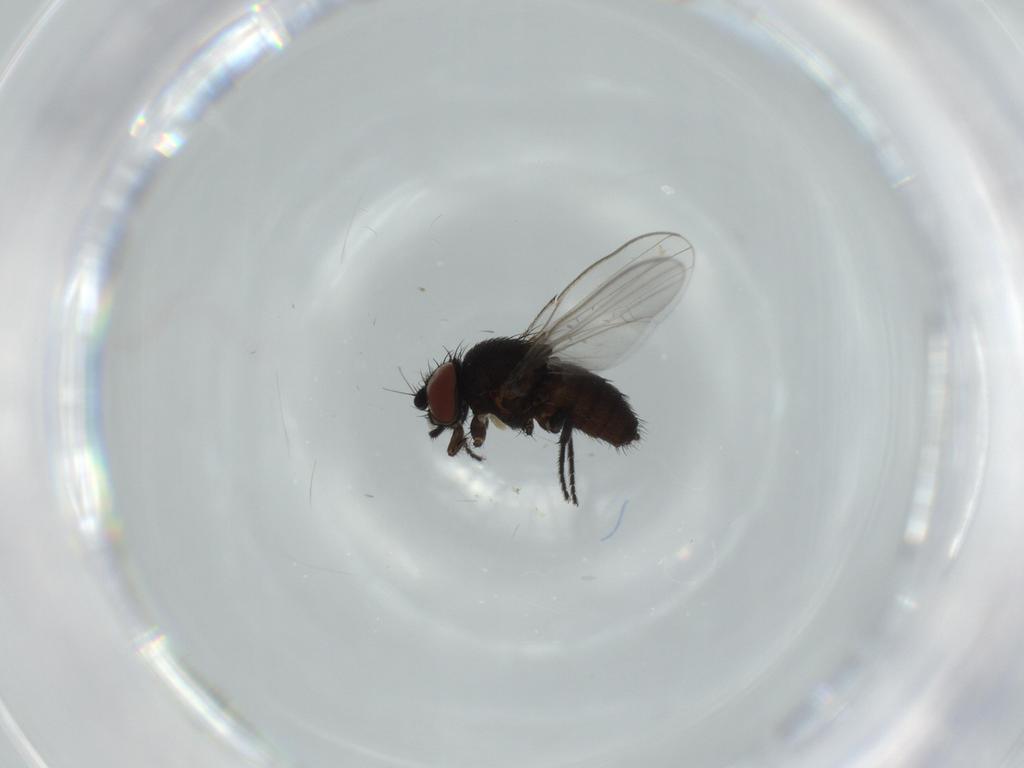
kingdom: Animalia
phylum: Arthropoda
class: Insecta
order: Diptera
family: Milichiidae
